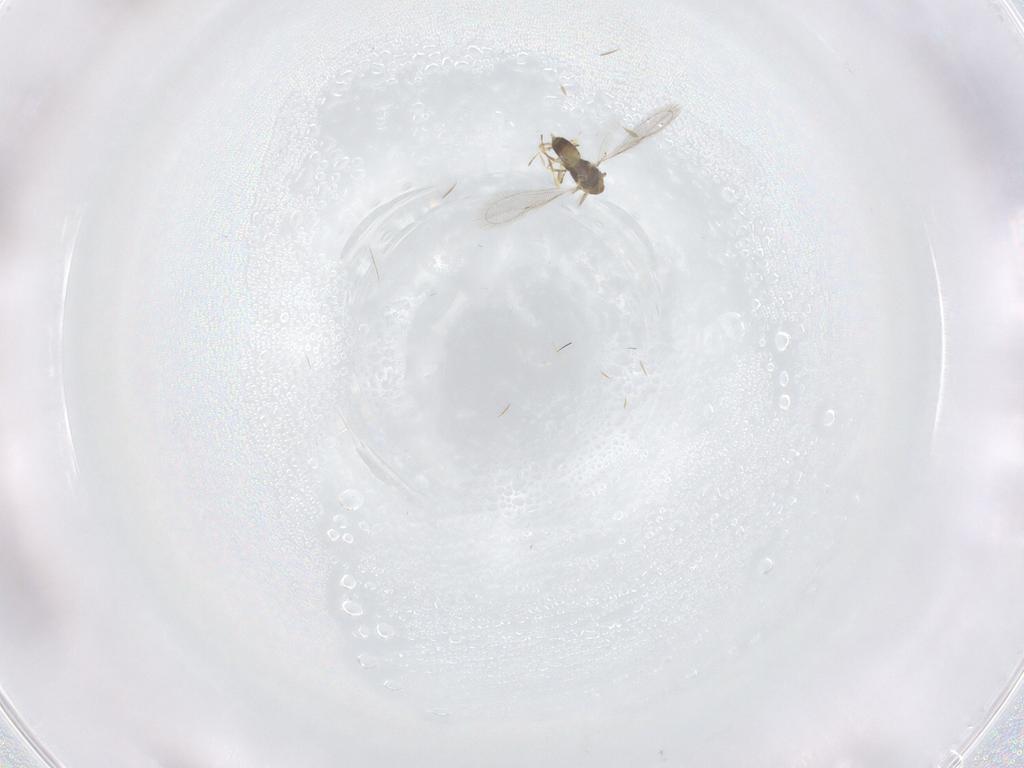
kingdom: Animalia
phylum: Arthropoda
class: Insecta
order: Hymenoptera
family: Eulophidae
